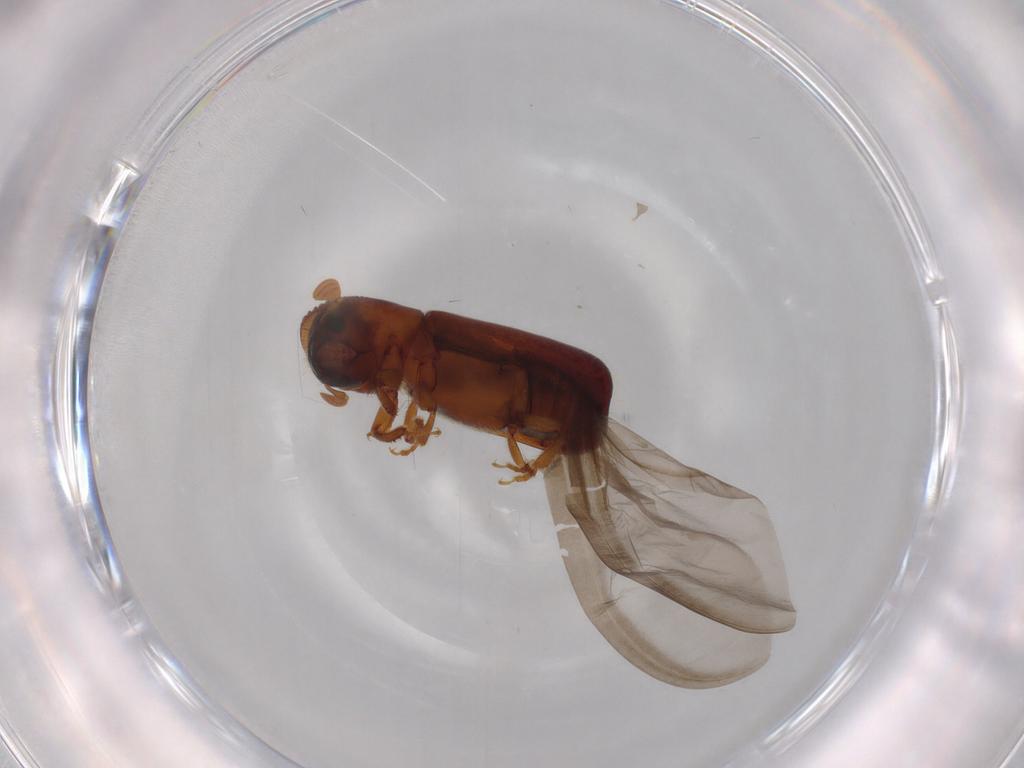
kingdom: Animalia
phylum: Arthropoda
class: Insecta
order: Coleoptera
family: Curculionidae
